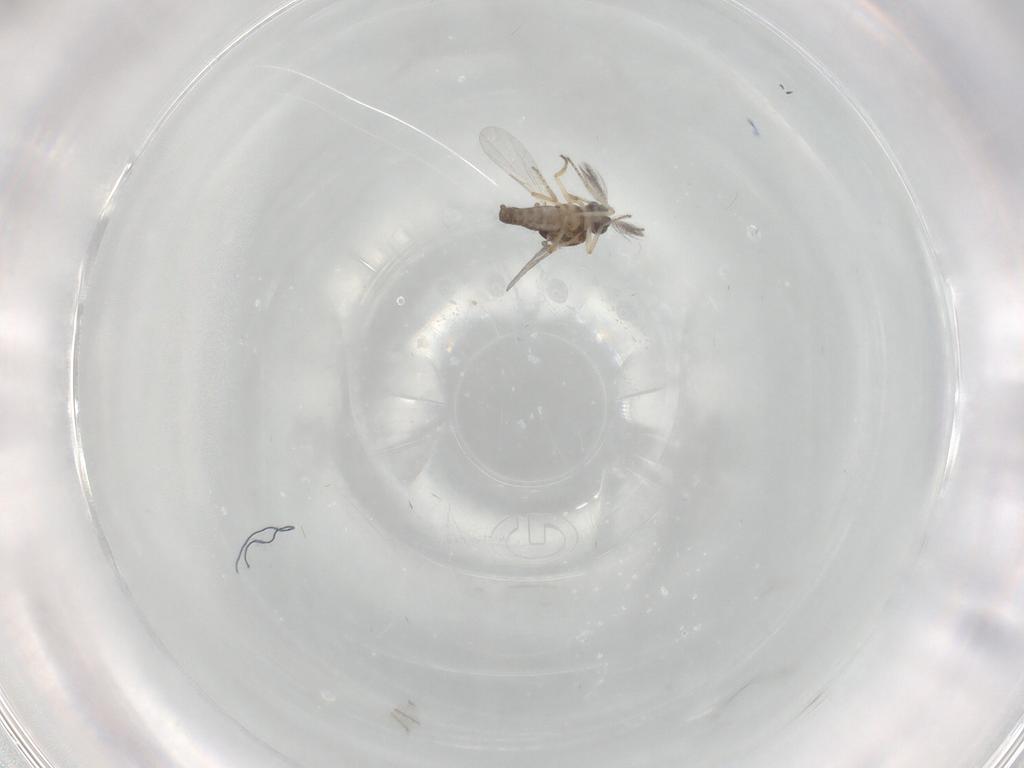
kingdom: Animalia
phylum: Arthropoda
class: Insecta
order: Diptera
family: Ceratopogonidae
